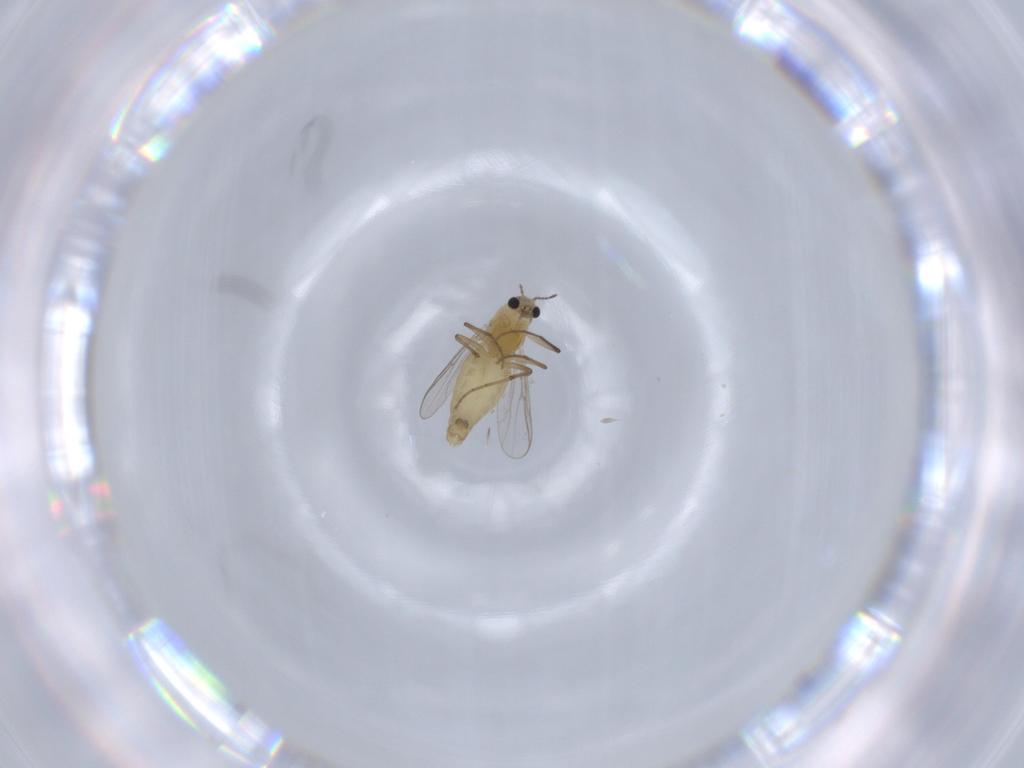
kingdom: Animalia
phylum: Arthropoda
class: Insecta
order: Diptera
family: Chironomidae
